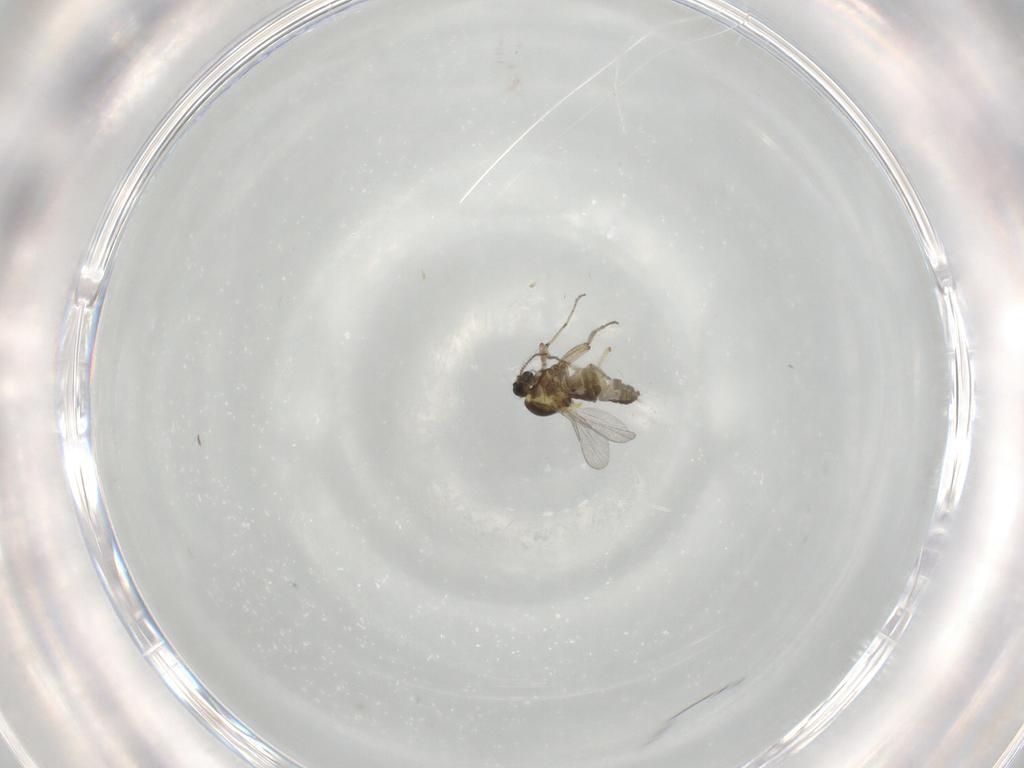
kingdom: Animalia
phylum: Arthropoda
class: Insecta
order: Diptera
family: Ceratopogonidae
